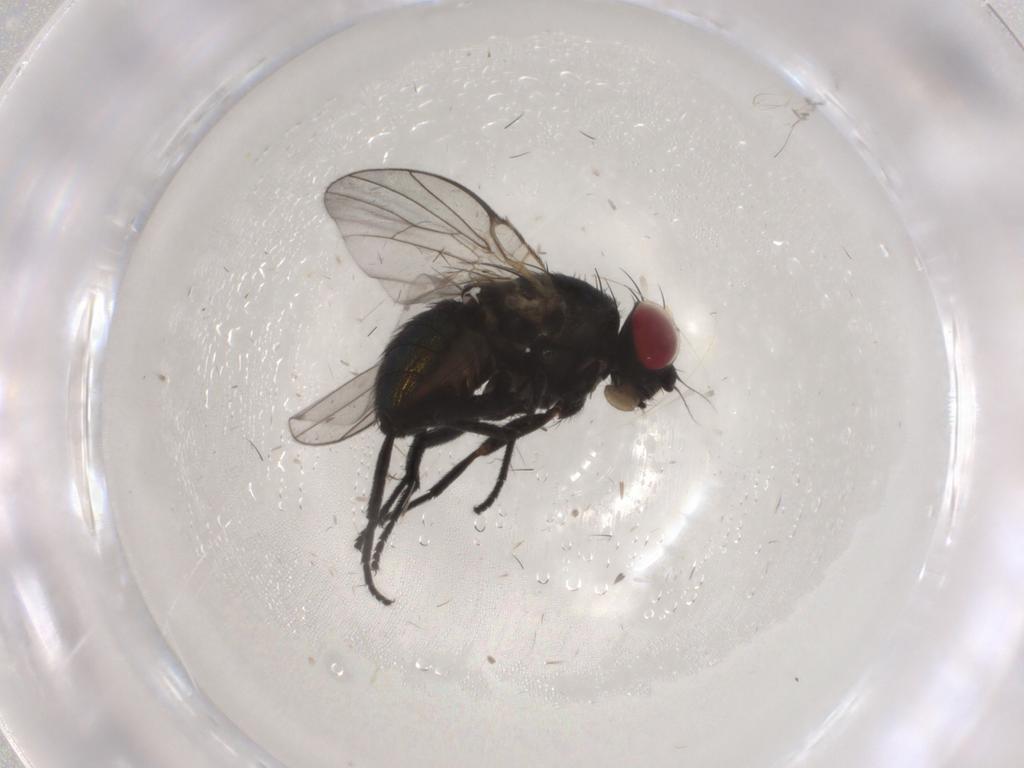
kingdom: Animalia
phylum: Arthropoda
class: Insecta
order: Diptera
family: Agromyzidae
